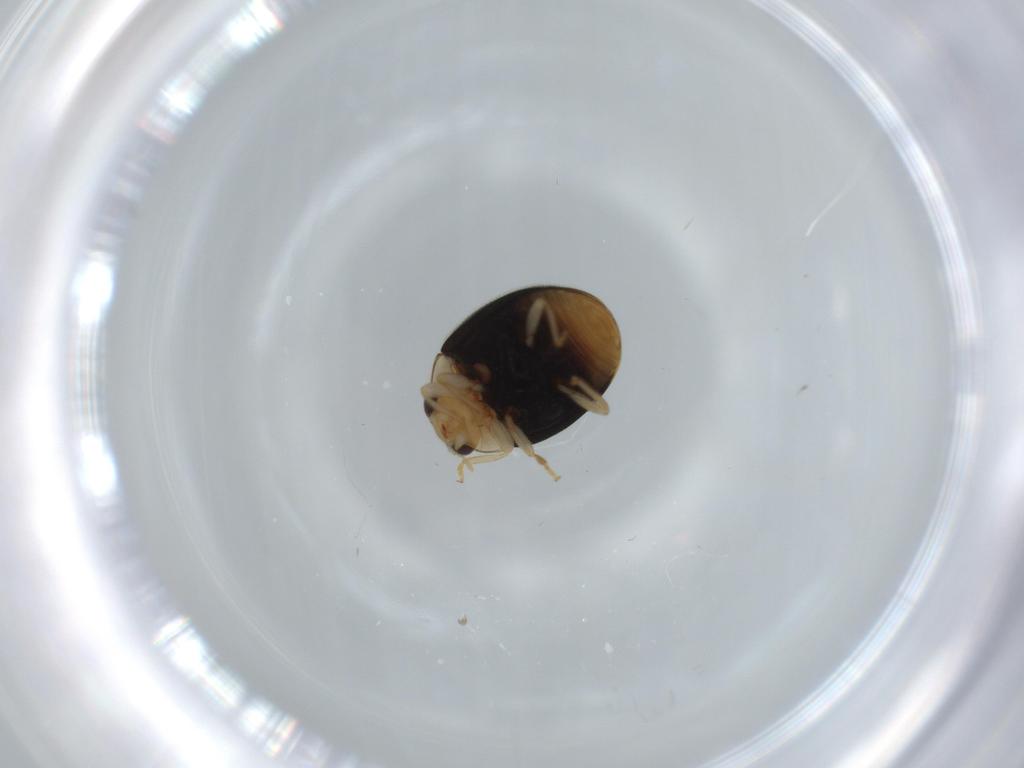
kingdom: Animalia
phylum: Arthropoda
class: Insecta
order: Coleoptera
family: Coccinellidae
